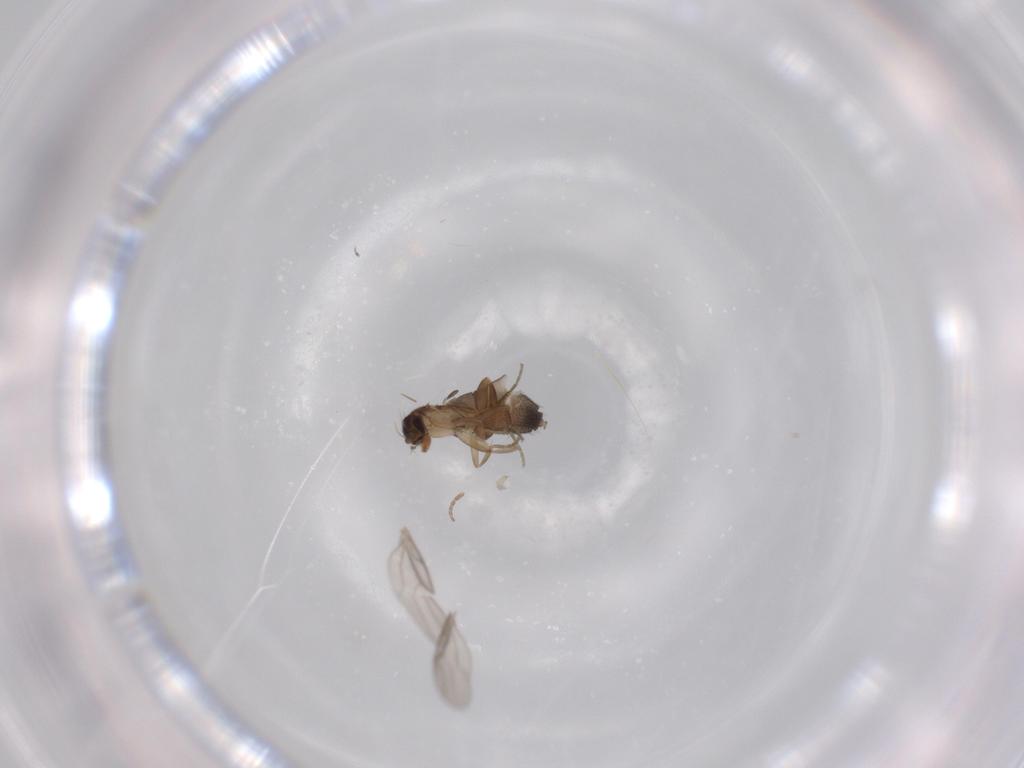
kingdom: Animalia
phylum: Arthropoda
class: Insecta
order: Diptera
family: Phoridae
